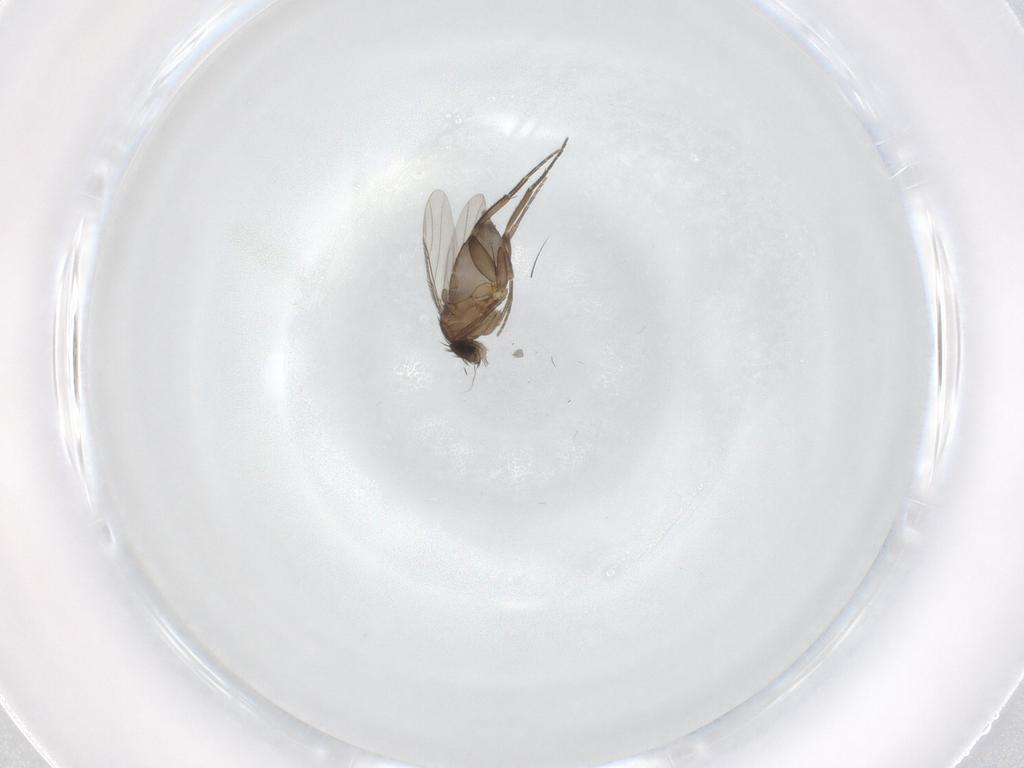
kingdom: Animalia
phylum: Arthropoda
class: Insecta
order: Diptera
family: Phoridae
